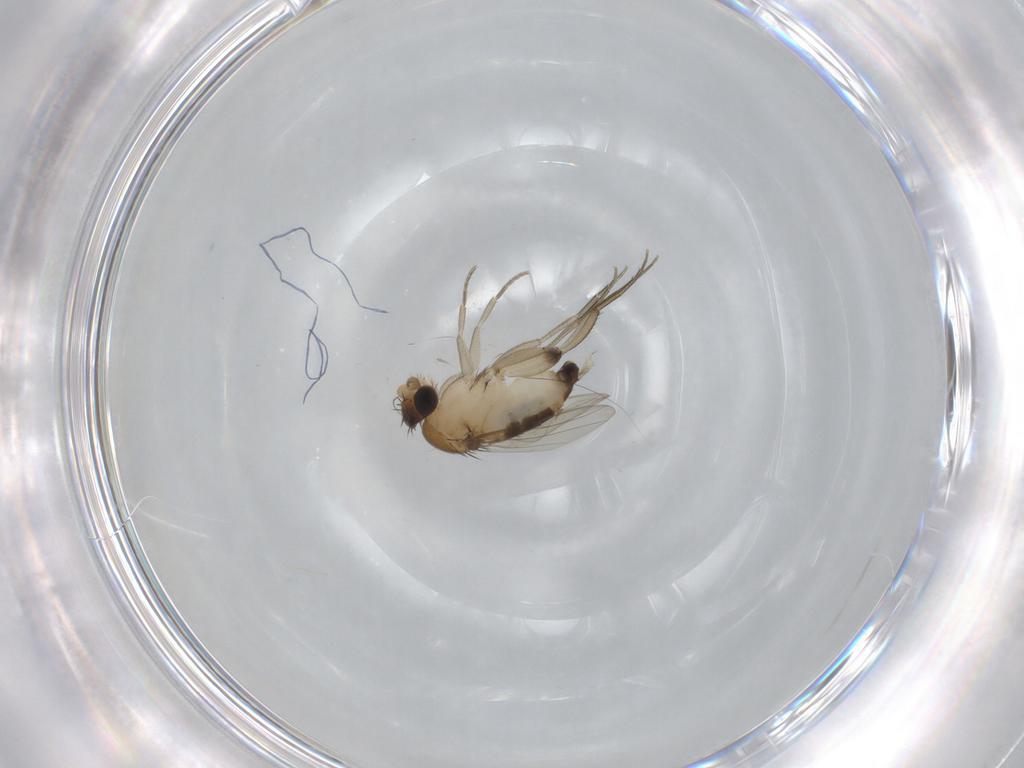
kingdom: Animalia
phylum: Arthropoda
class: Insecta
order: Diptera
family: Phoridae
